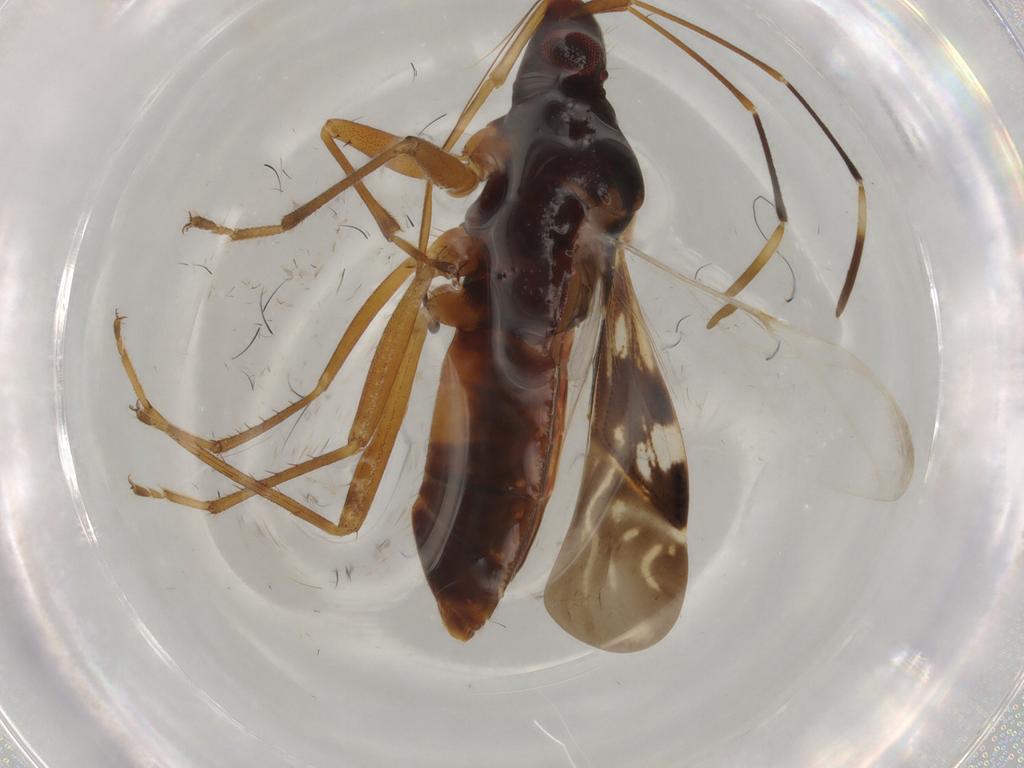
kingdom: Animalia
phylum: Arthropoda
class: Insecta
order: Hemiptera
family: Rhyparochromidae
